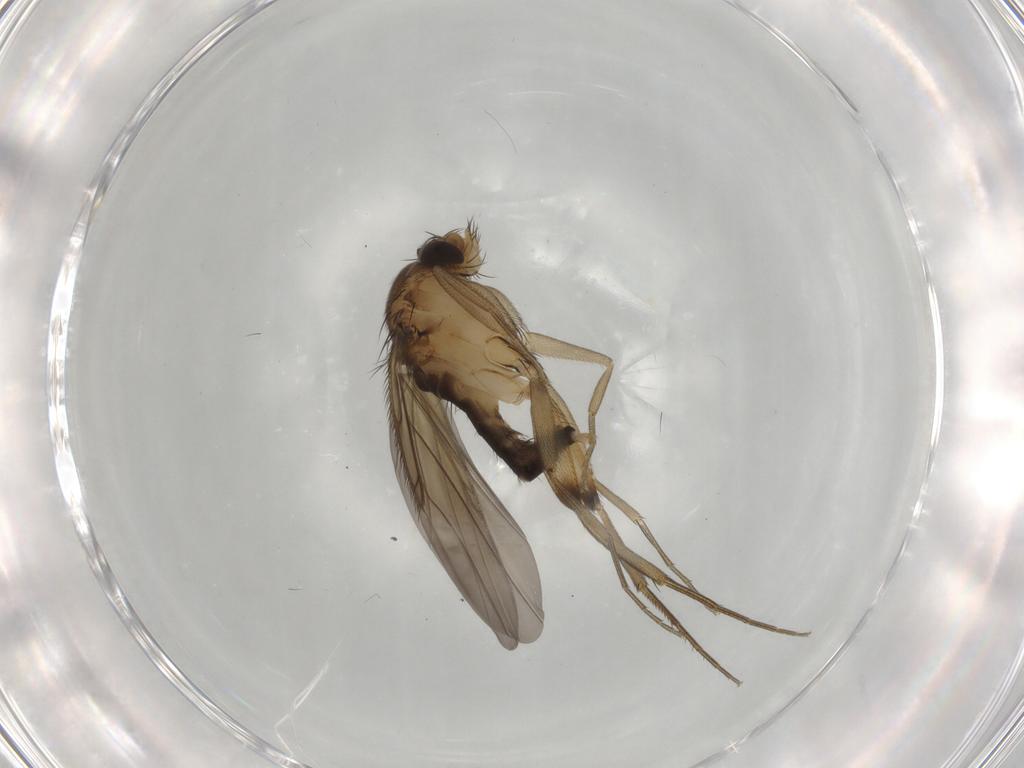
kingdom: Animalia
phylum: Arthropoda
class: Insecta
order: Diptera
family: Phoridae
